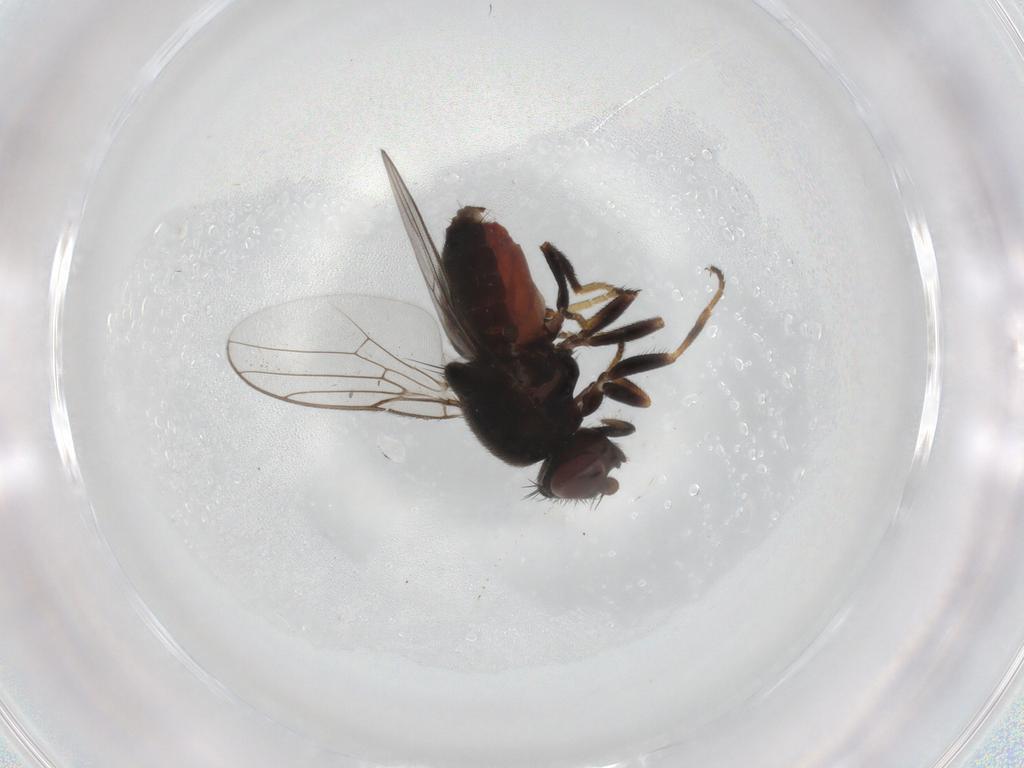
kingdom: Animalia
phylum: Arthropoda
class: Insecta
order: Diptera
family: Chloropidae
